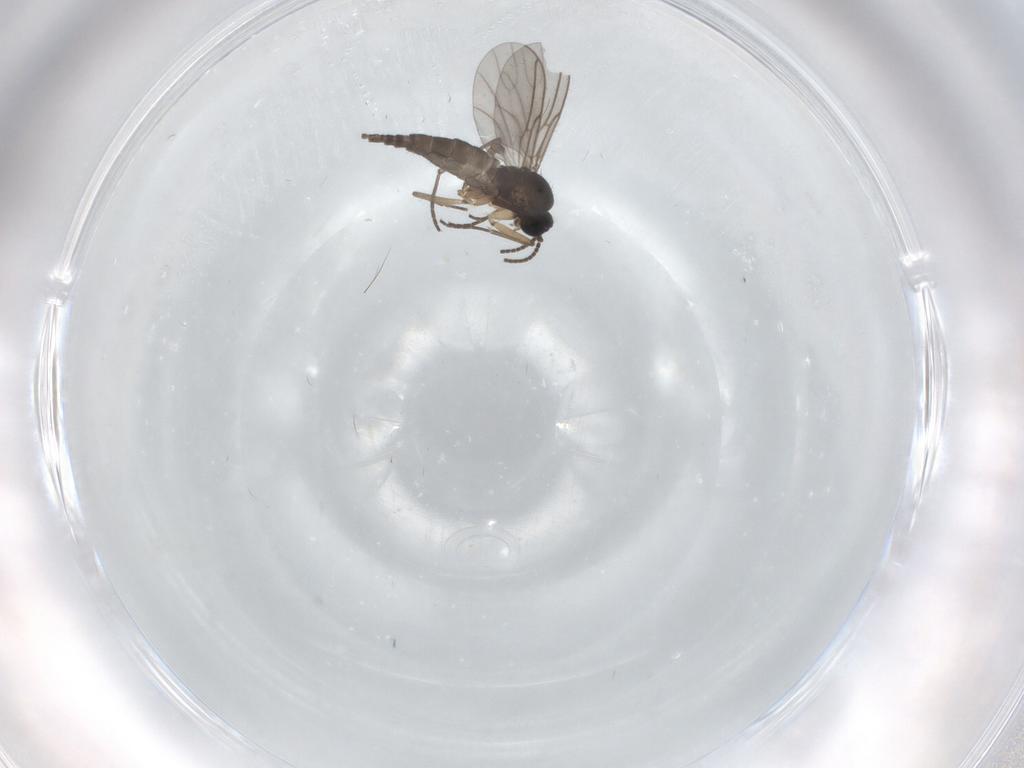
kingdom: Animalia
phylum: Arthropoda
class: Insecta
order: Diptera
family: Sciaridae
